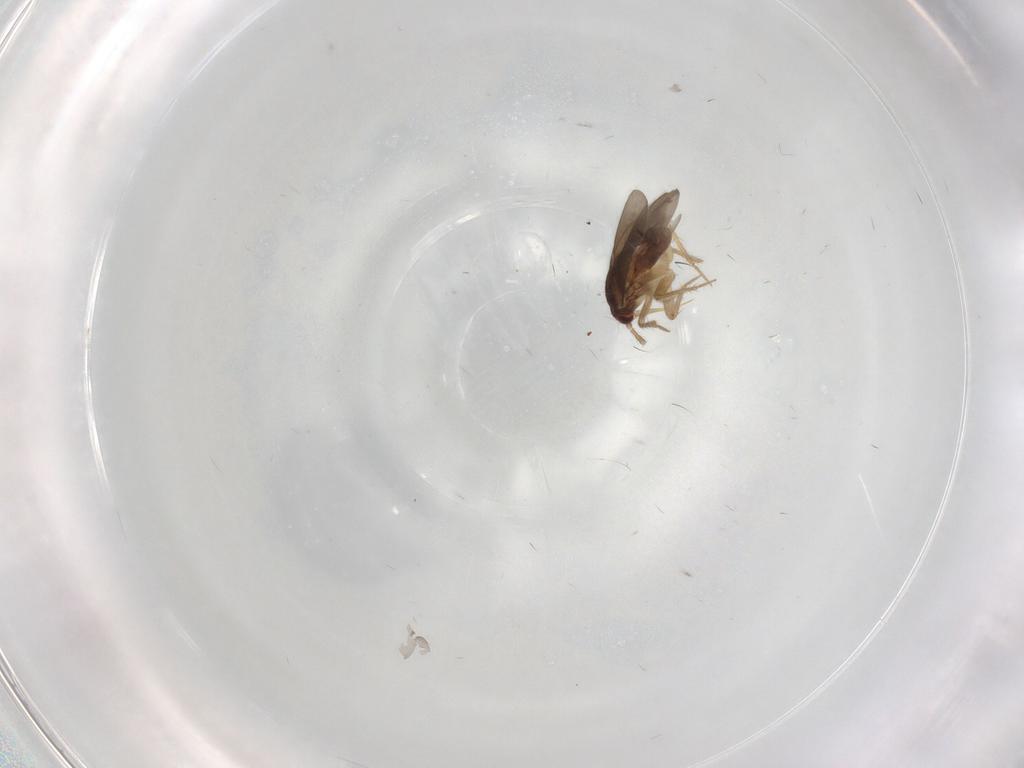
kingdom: Animalia
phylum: Arthropoda
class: Insecta
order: Hemiptera
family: Ceratocombidae
